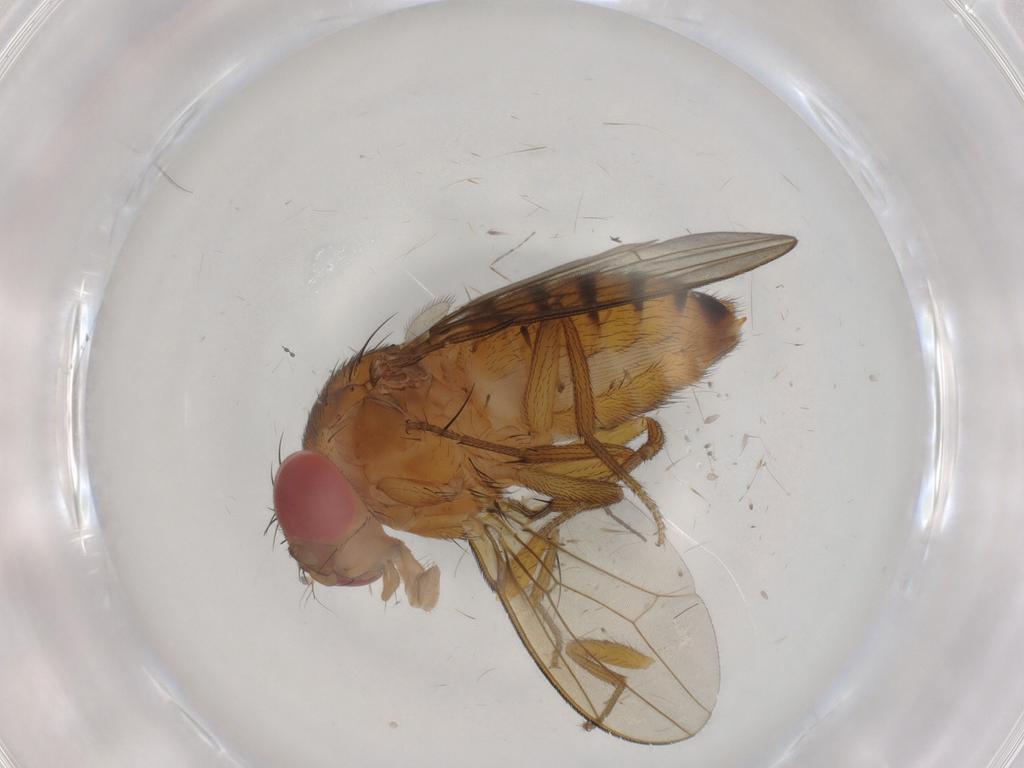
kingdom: Animalia
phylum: Arthropoda
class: Insecta
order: Diptera
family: Drosophilidae
